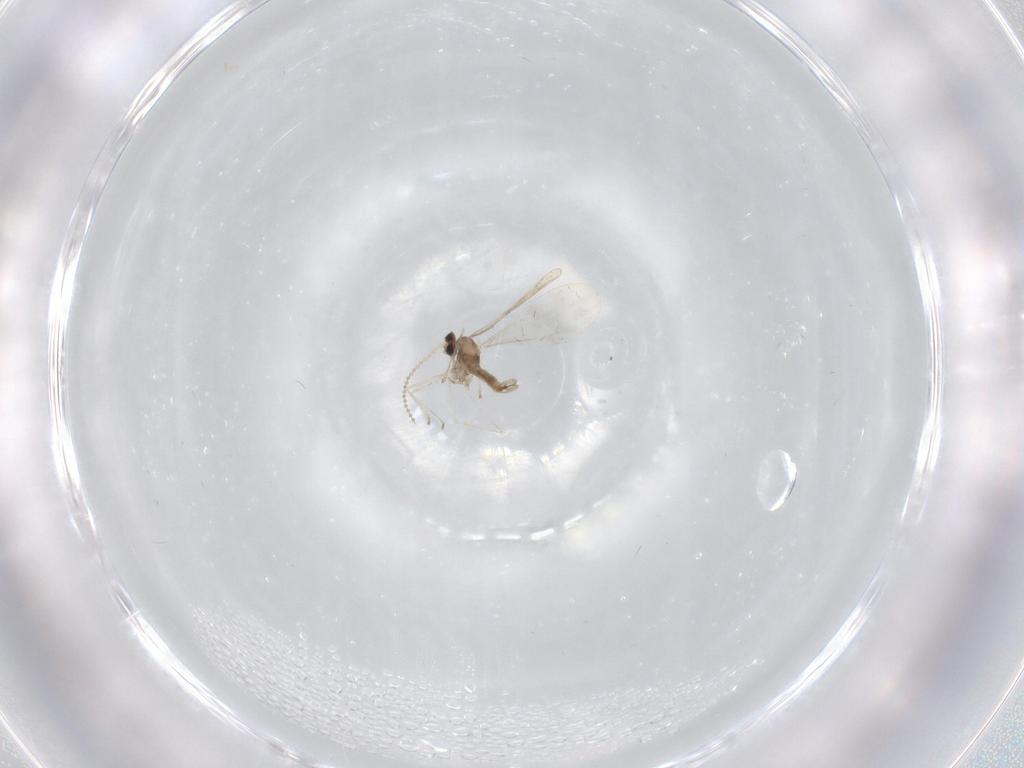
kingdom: Animalia
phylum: Arthropoda
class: Insecta
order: Diptera
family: Cecidomyiidae
